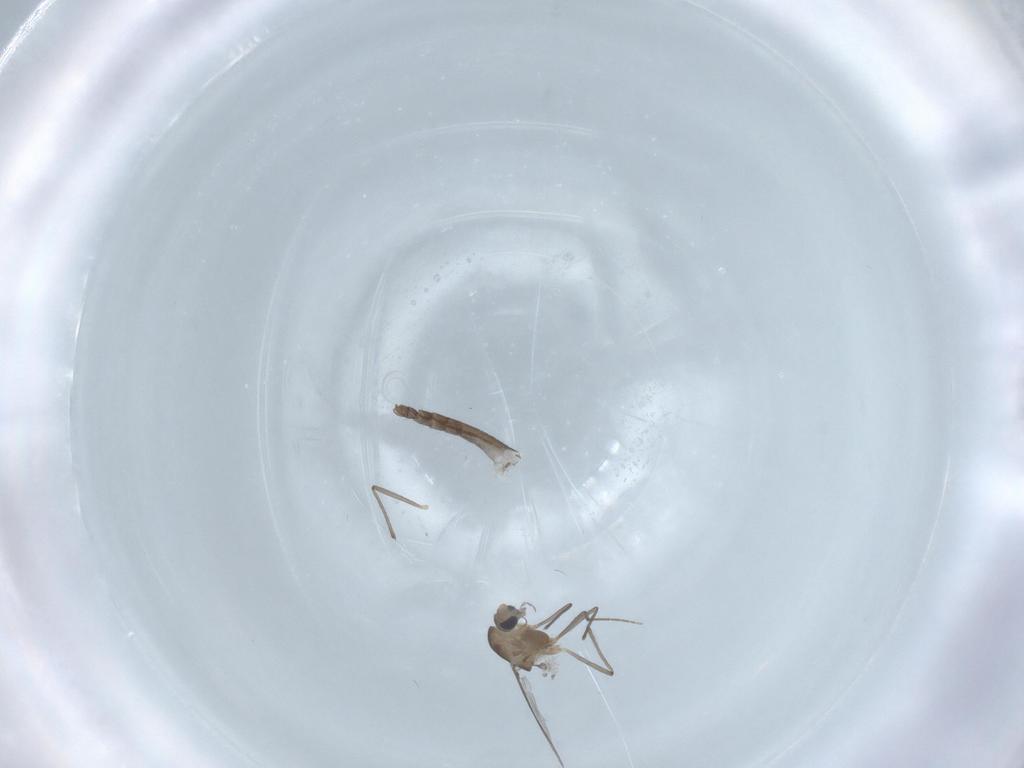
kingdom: Animalia
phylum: Arthropoda
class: Insecta
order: Diptera
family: Chironomidae
